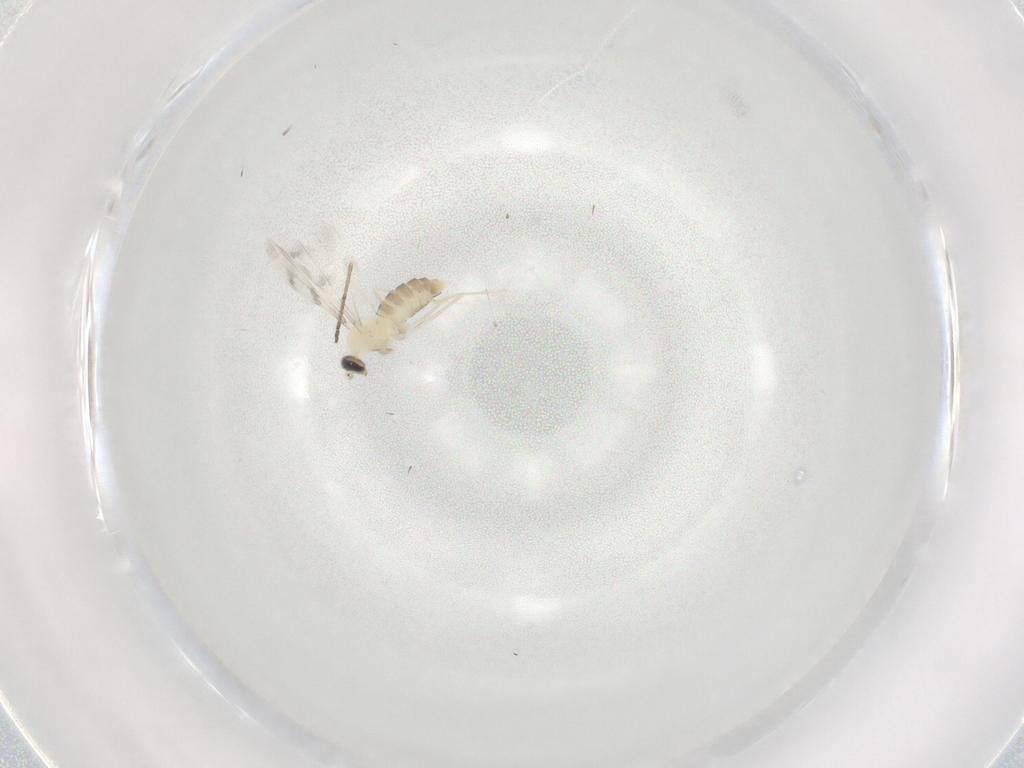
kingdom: Animalia
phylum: Arthropoda
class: Insecta
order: Diptera
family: Cecidomyiidae
